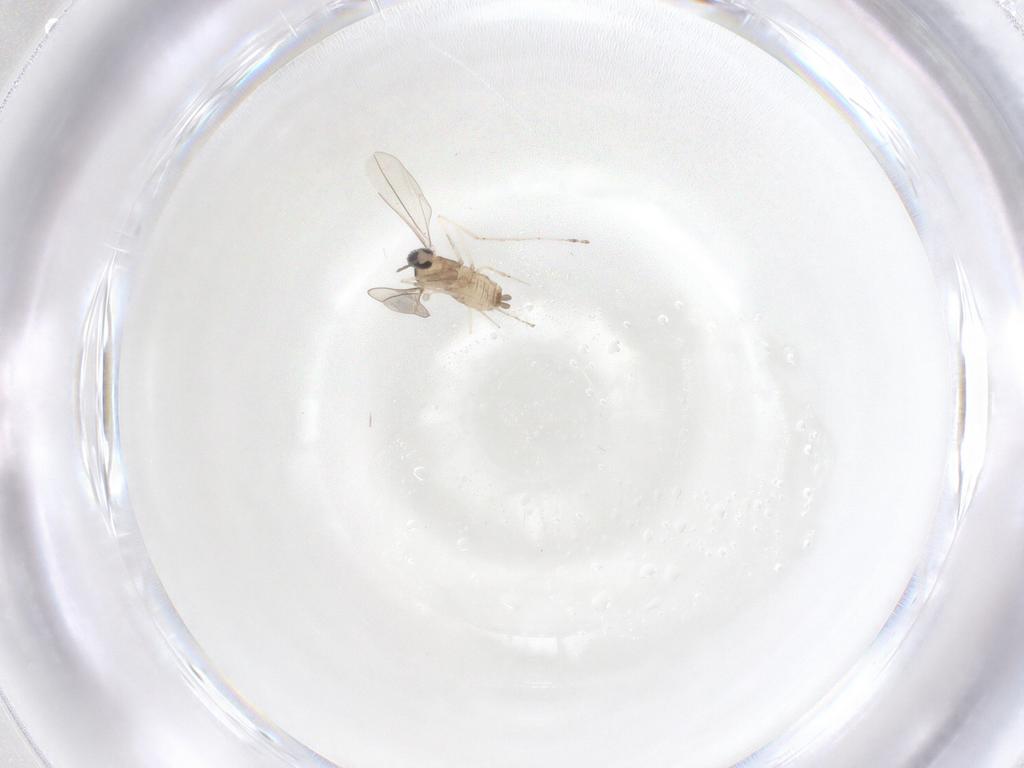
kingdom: Animalia
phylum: Arthropoda
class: Insecta
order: Diptera
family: Cecidomyiidae
